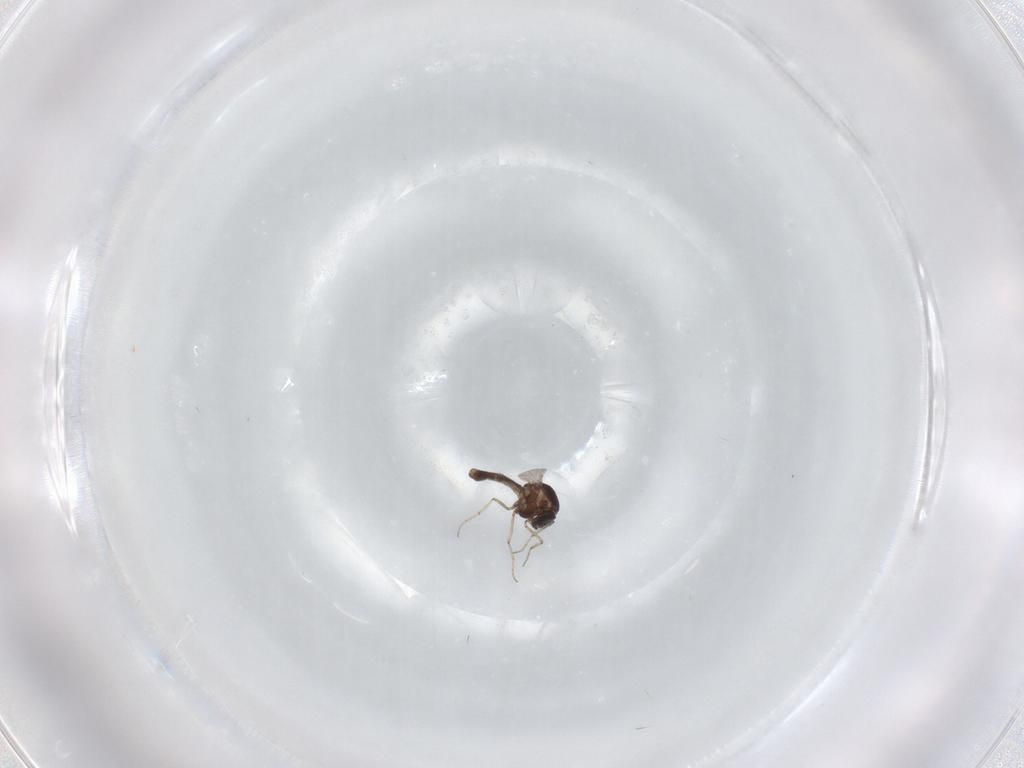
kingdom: Animalia
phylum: Arthropoda
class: Insecta
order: Diptera
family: Ceratopogonidae
